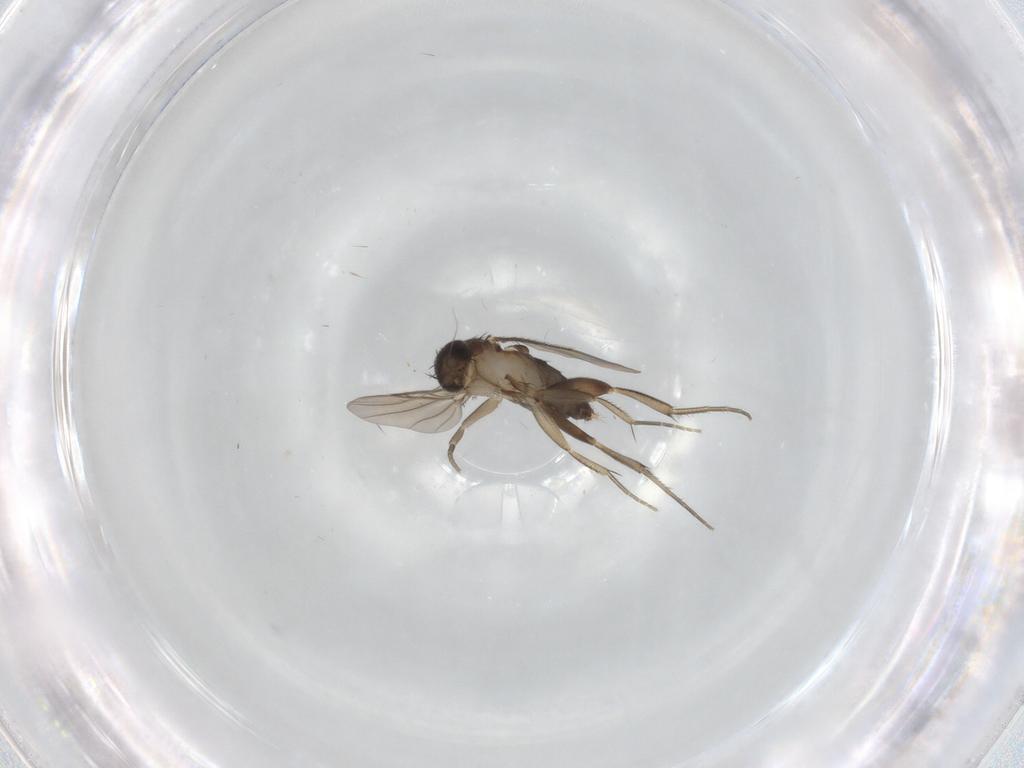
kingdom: Animalia
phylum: Arthropoda
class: Insecta
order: Diptera
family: Phoridae
